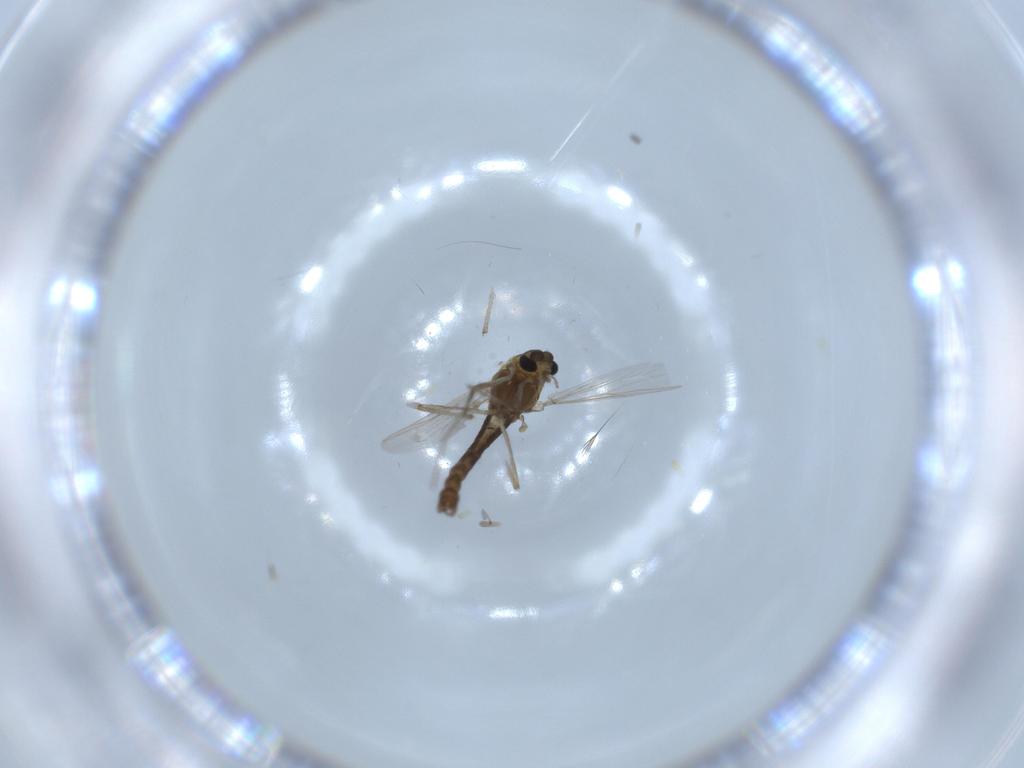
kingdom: Animalia
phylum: Arthropoda
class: Insecta
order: Diptera
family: Chironomidae
